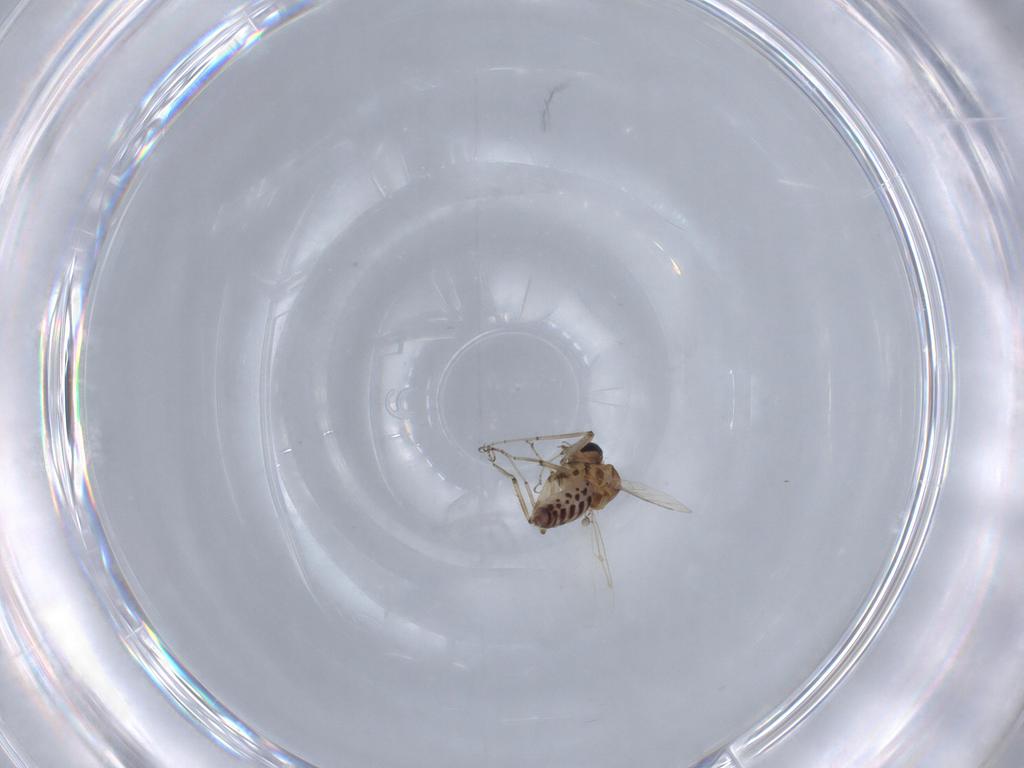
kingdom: Animalia
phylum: Arthropoda
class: Insecta
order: Diptera
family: Ceratopogonidae
